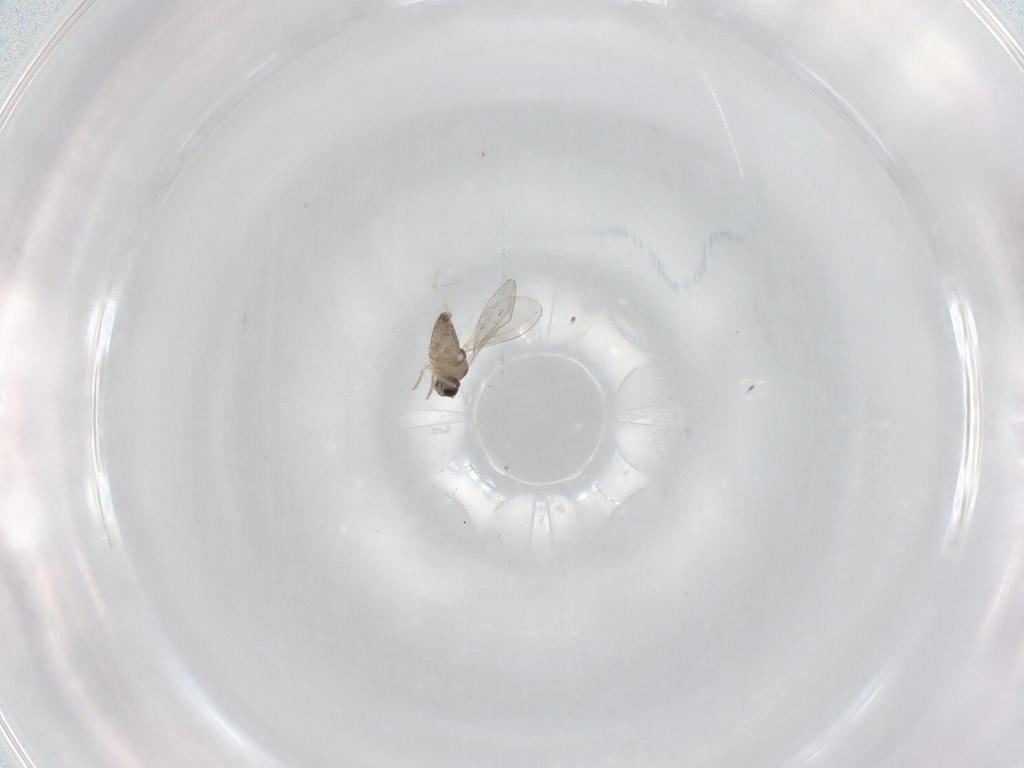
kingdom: Animalia
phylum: Arthropoda
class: Insecta
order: Diptera
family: Cecidomyiidae
